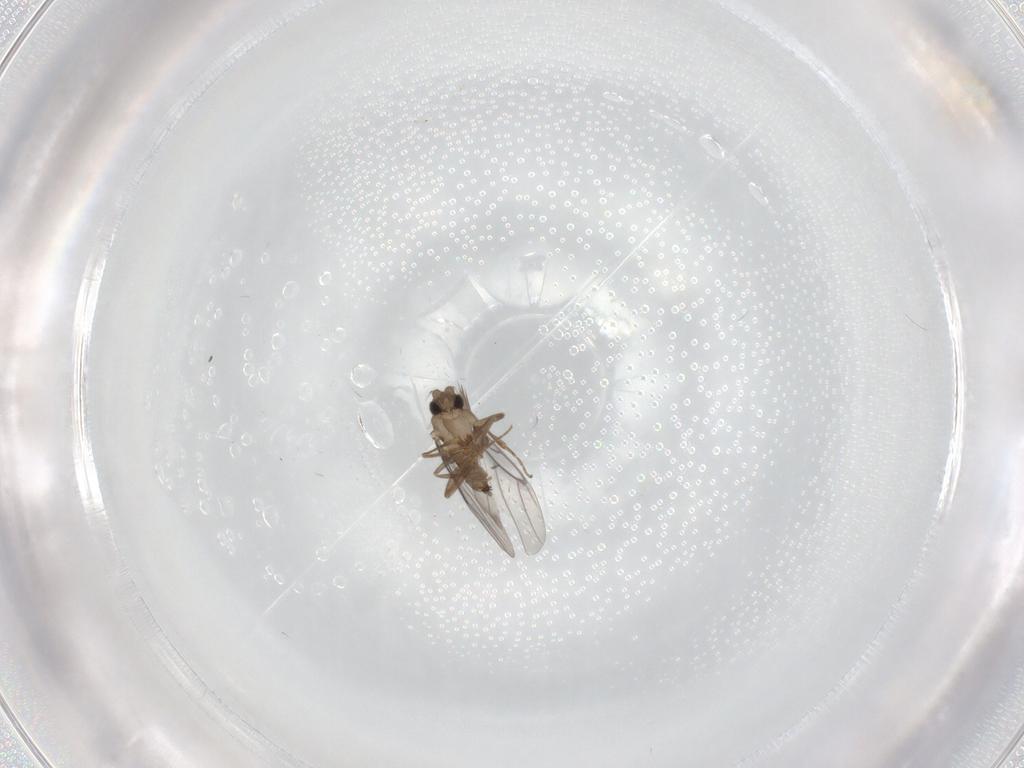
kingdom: Animalia
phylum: Arthropoda
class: Insecta
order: Diptera
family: Cecidomyiidae
